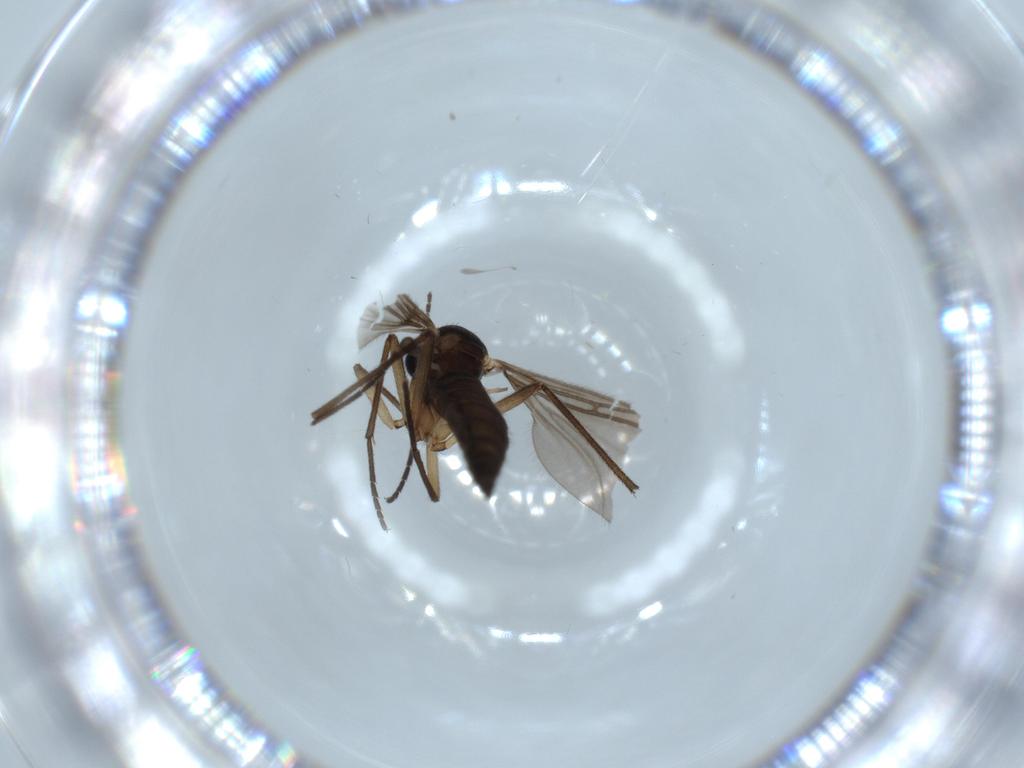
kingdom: Animalia
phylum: Arthropoda
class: Insecta
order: Diptera
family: Sciaridae
